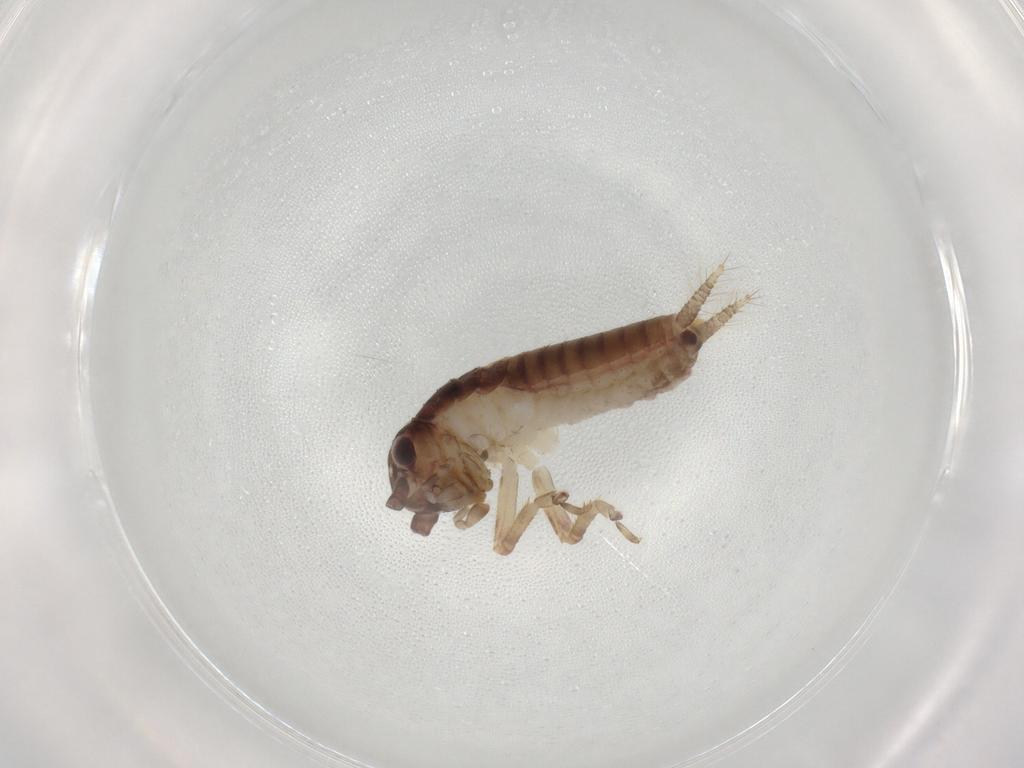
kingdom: Animalia
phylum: Arthropoda
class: Insecta
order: Orthoptera
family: Gryllidae
